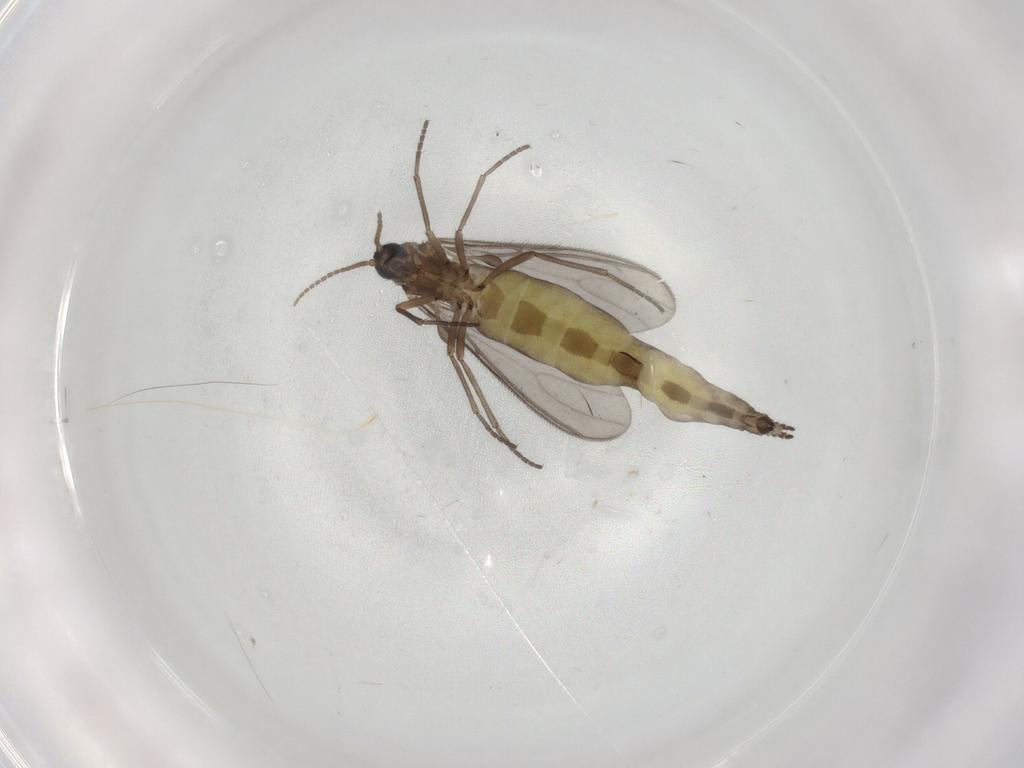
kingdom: Animalia
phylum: Arthropoda
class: Insecta
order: Diptera
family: Sciaridae
